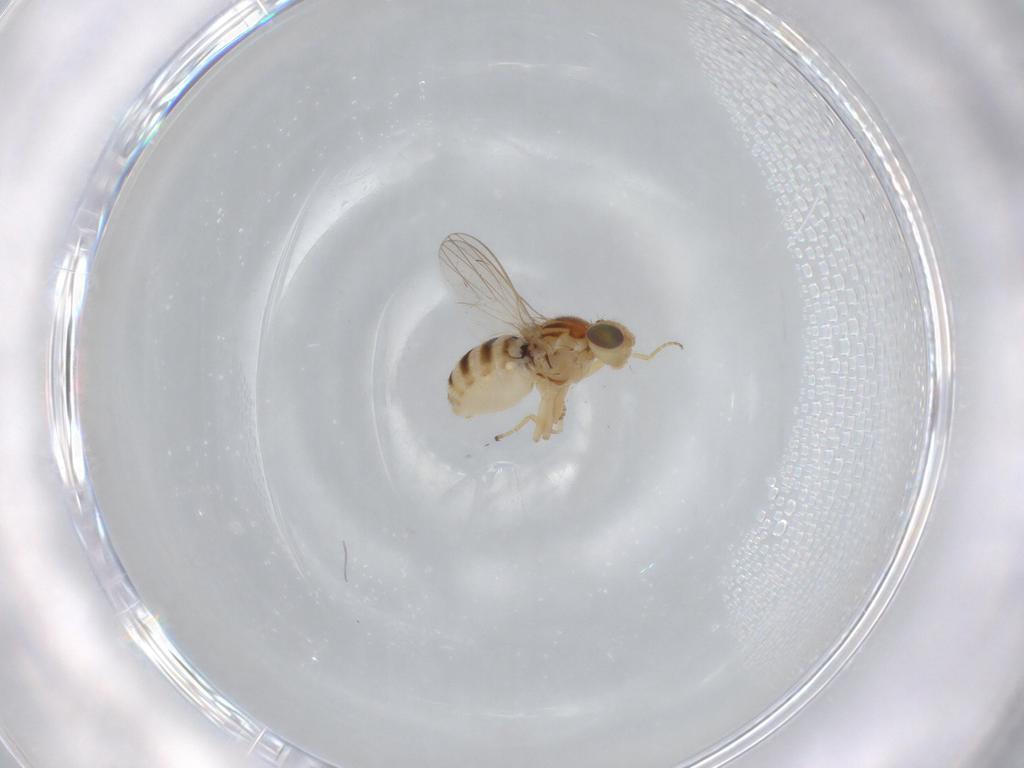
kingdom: Animalia
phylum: Arthropoda
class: Insecta
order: Diptera
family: Chyromyidae
